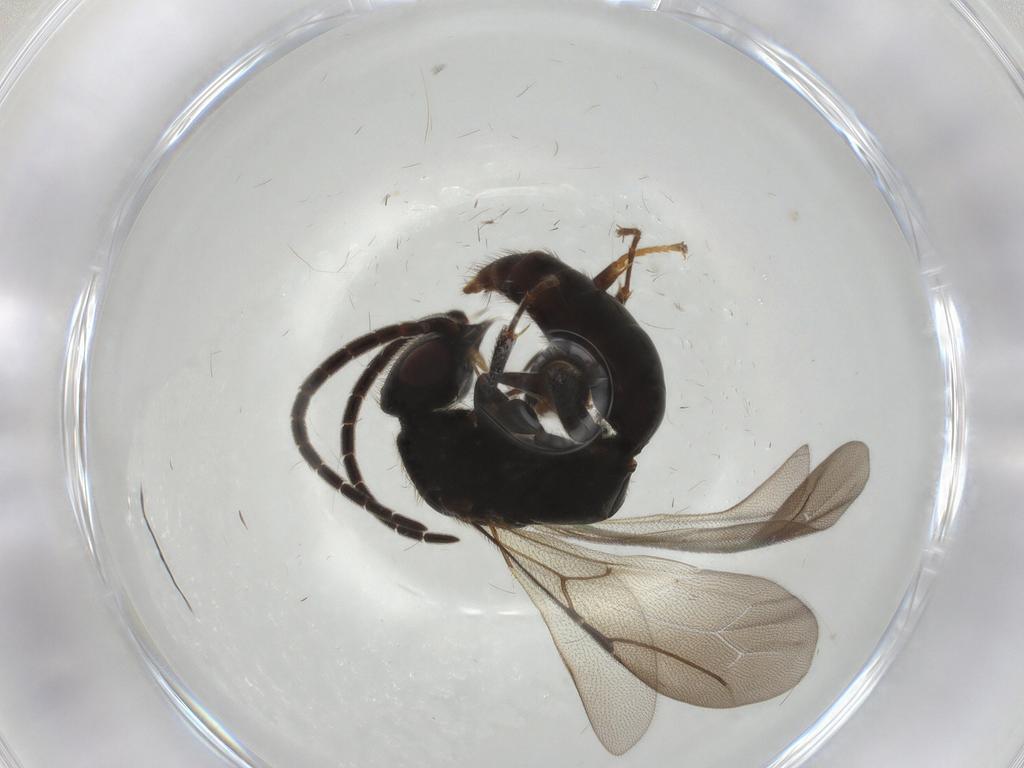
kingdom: Animalia
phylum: Arthropoda
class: Insecta
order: Hymenoptera
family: Bethylidae
